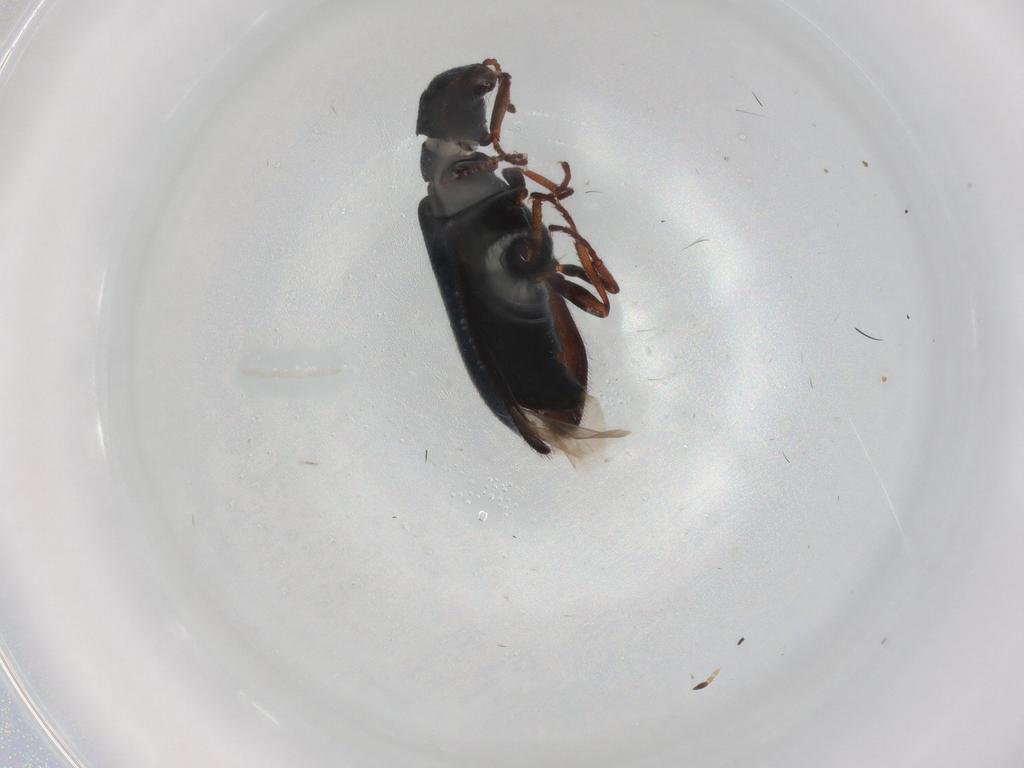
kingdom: Animalia
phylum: Arthropoda
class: Insecta
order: Coleoptera
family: Melyridae
